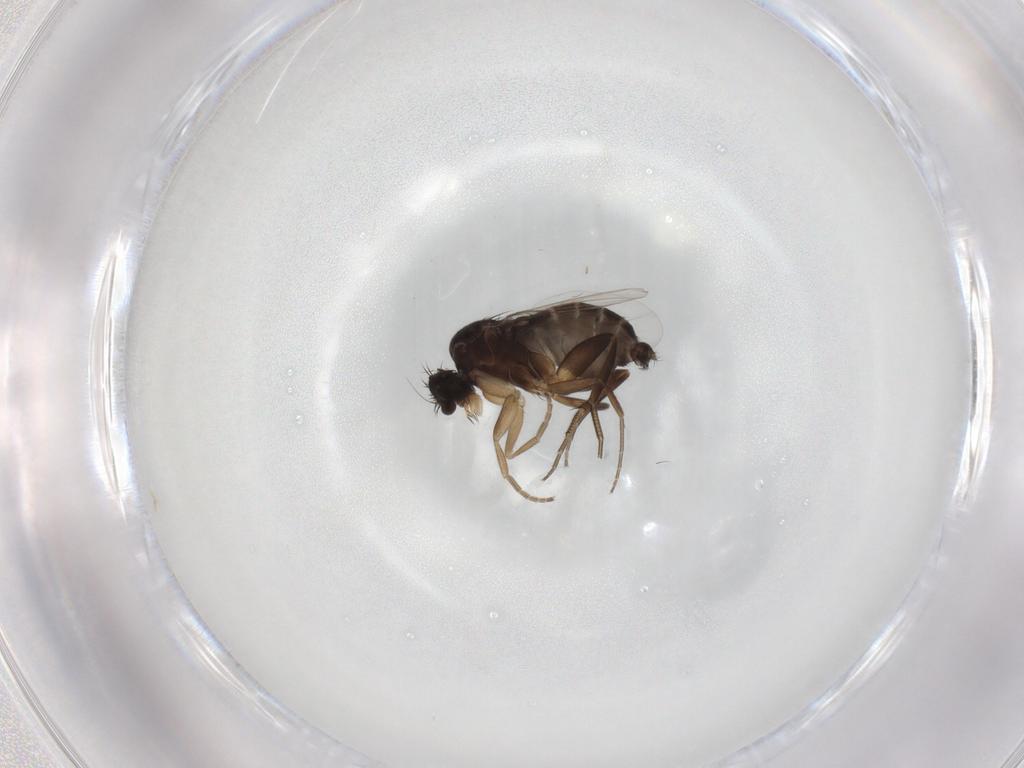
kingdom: Animalia
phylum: Arthropoda
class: Insecta
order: Diptera
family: Phoridae
